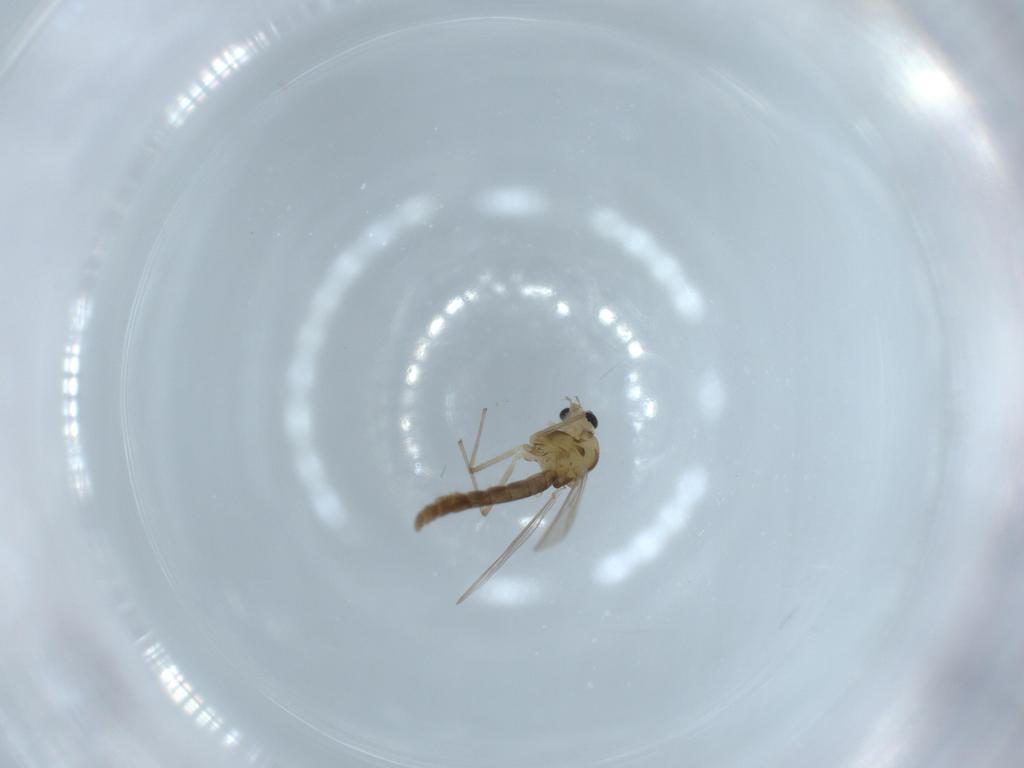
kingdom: Animalia
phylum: Arthropoda
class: Insecta
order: Diptera
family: Chironomidae
